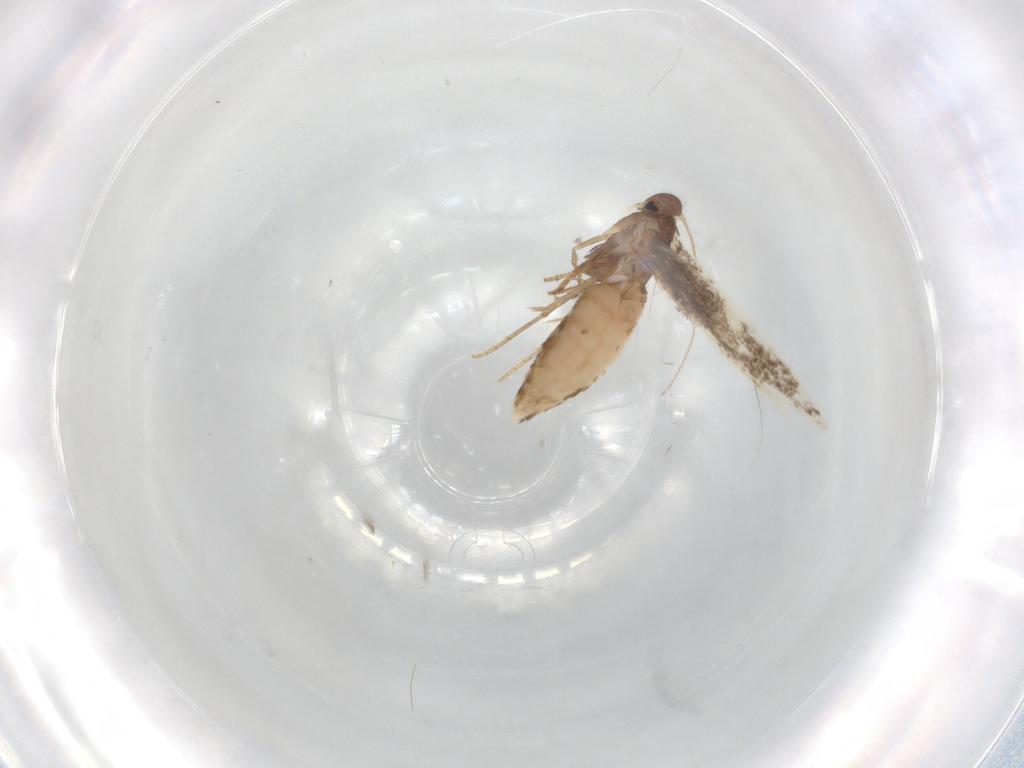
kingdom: Animalia
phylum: Arthropoda
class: Insecta
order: Lepidoptera
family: Elachistidae
